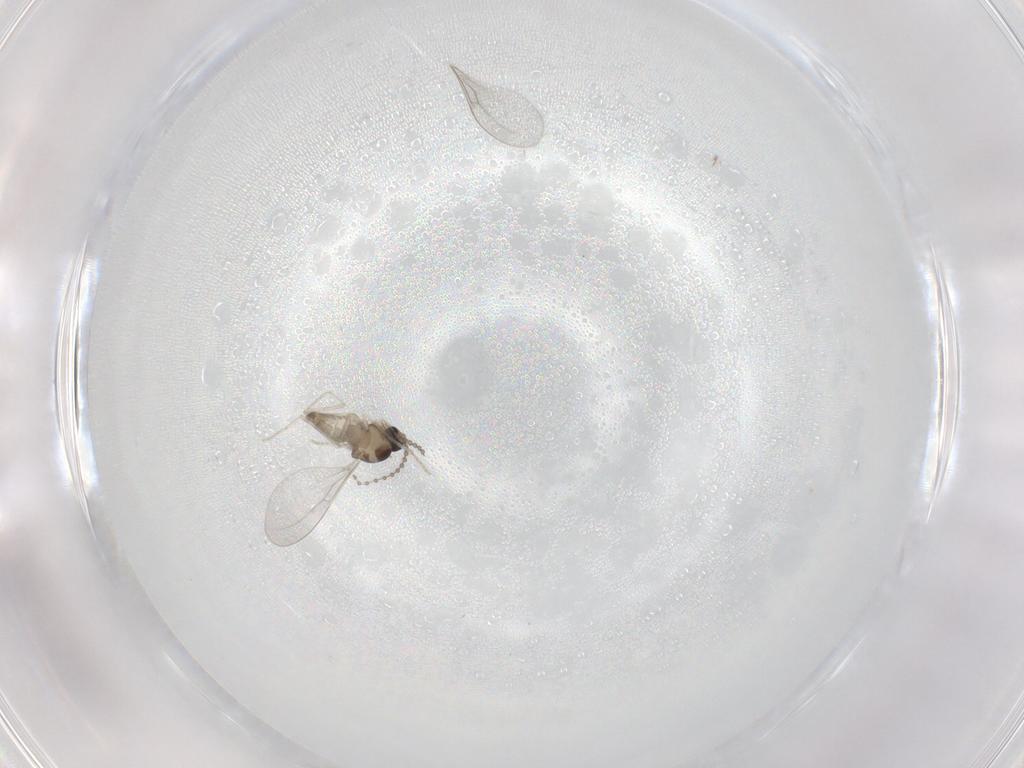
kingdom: Animalia
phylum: Arthropoda
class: Insecta
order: Diptera
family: Cecidomyiidae
